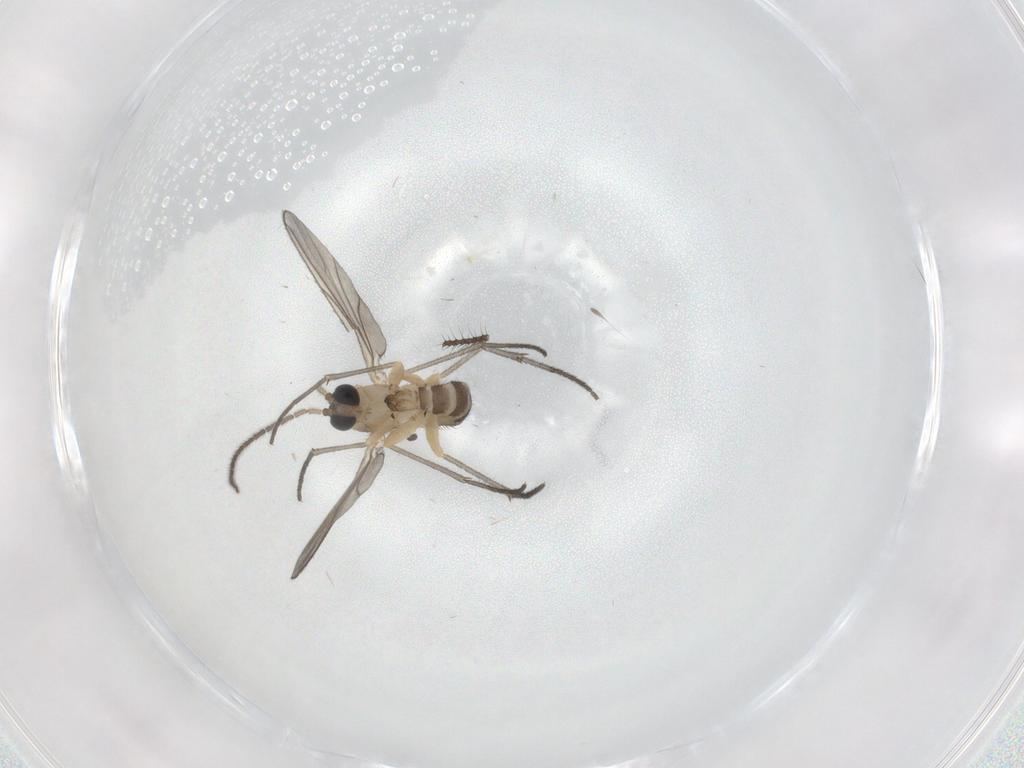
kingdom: Animalia
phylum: Arthropoda
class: Insecta
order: Diptera
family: Sciaridae
